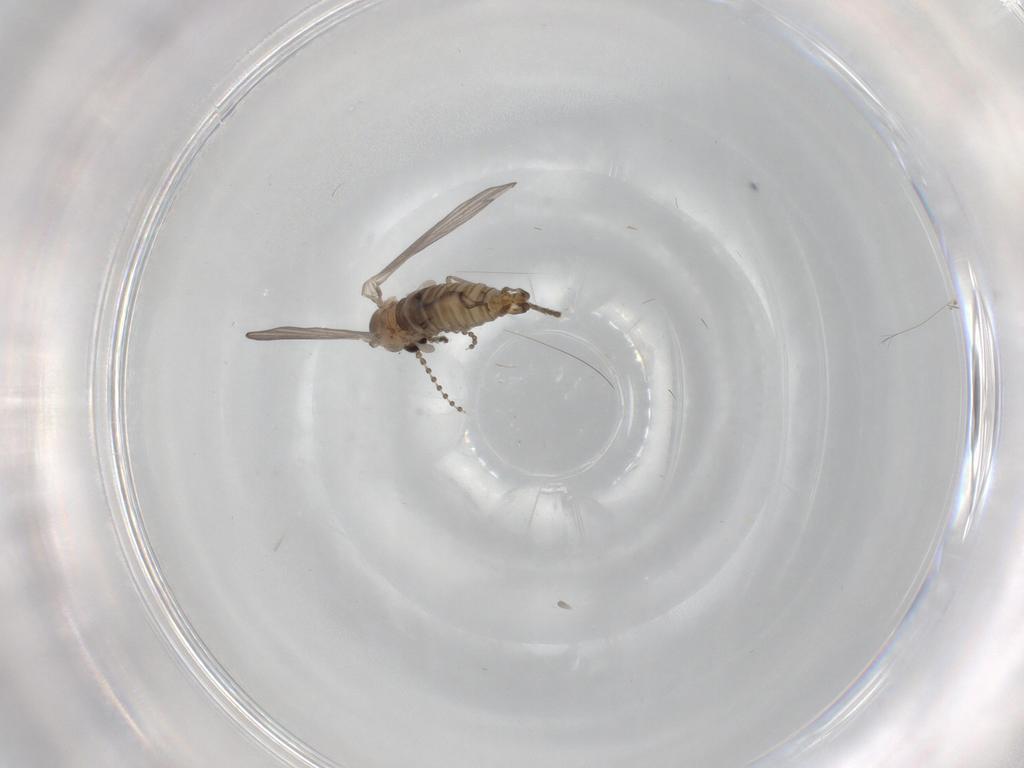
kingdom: Animalia
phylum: Arthropoda
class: Insecta
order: Diptera
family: Psychodidae
